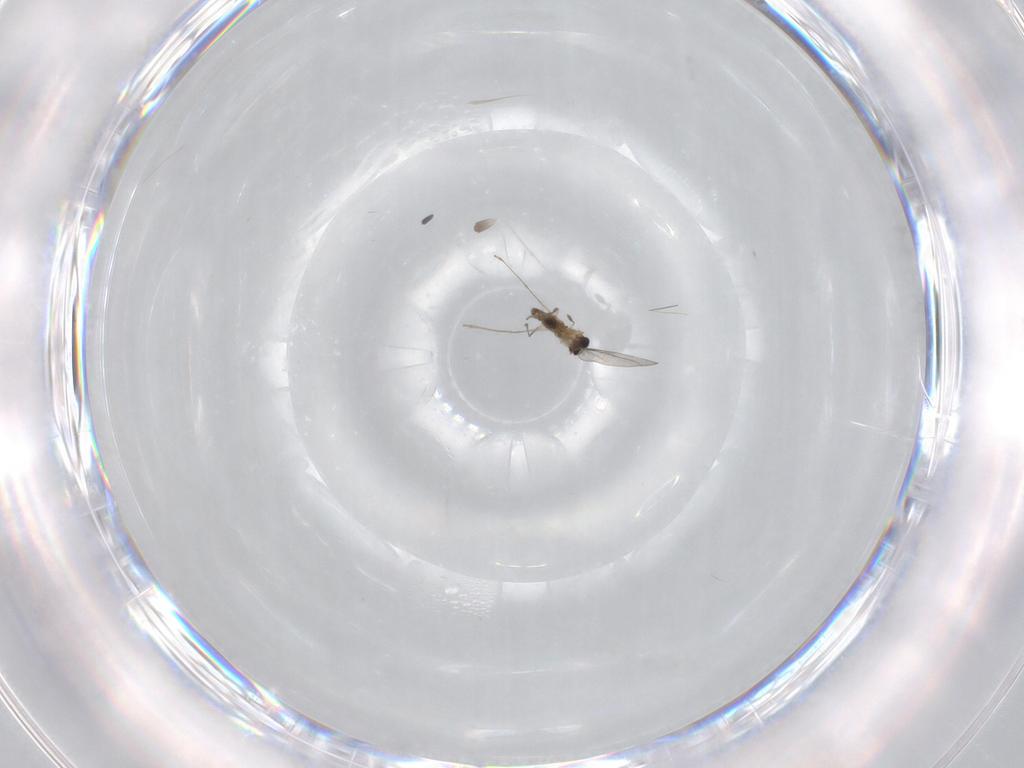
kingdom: Animalia
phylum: Arthropoda
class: Insecta
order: Diptera
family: Cecidomyiidae
